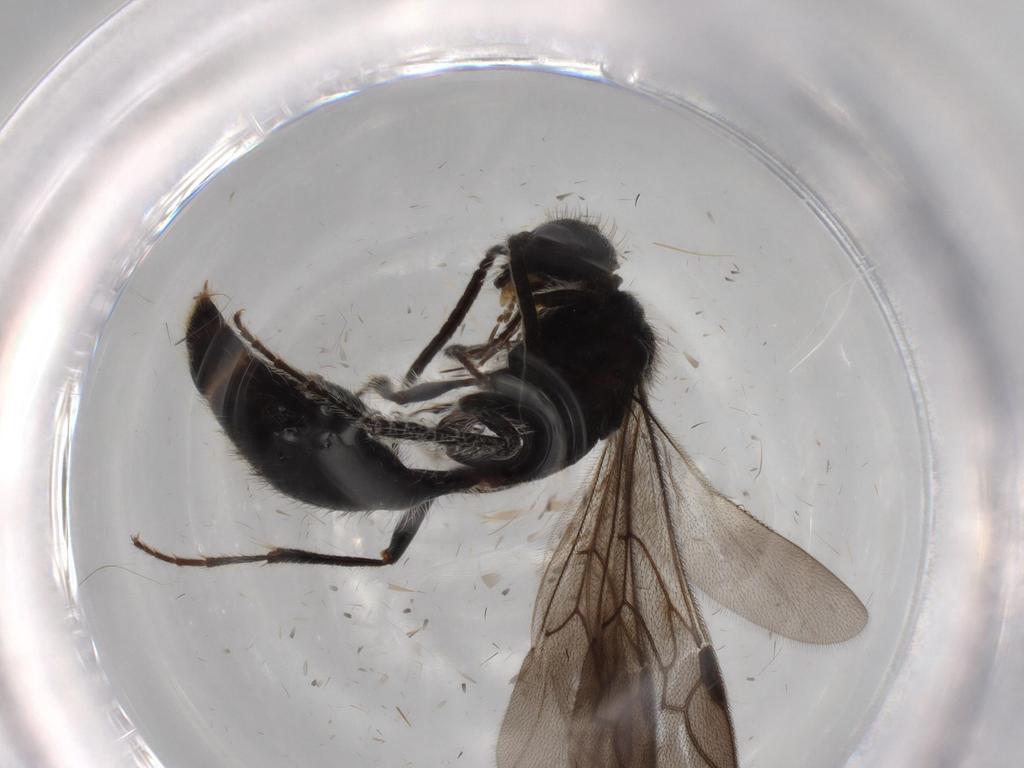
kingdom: Animalia
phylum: Arthropoda
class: Insecta
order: Hymenoptera
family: Mutillidae
